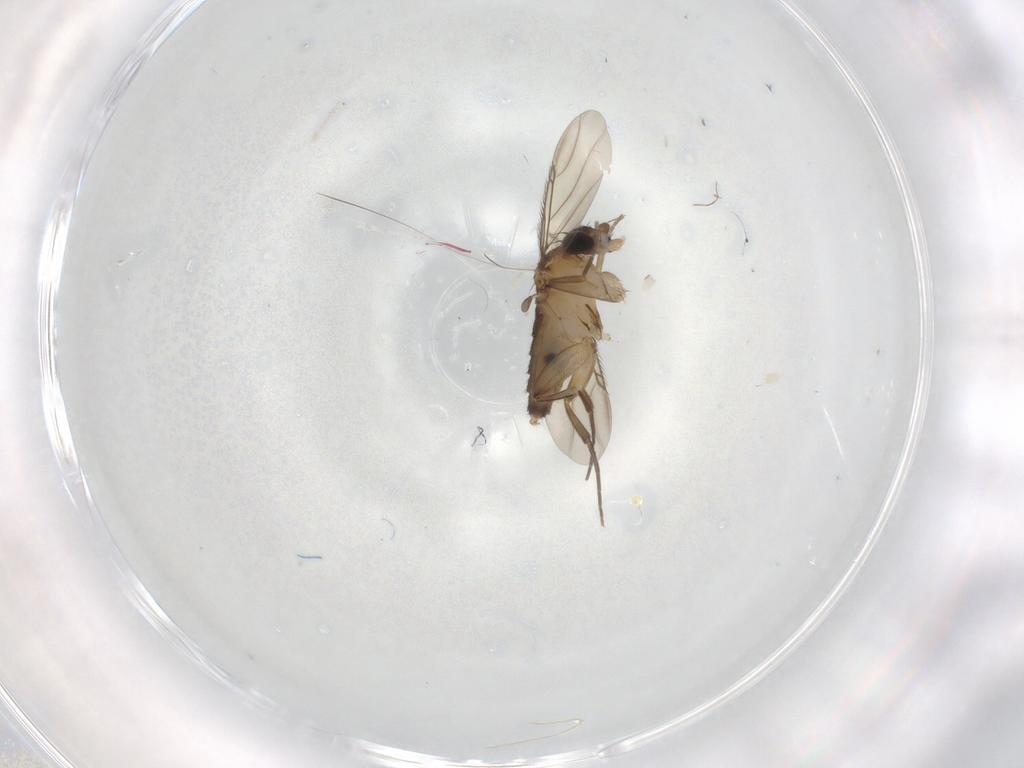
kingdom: Animalia
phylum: Arthropoda
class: Insecta
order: Diptera
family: Phoridae
